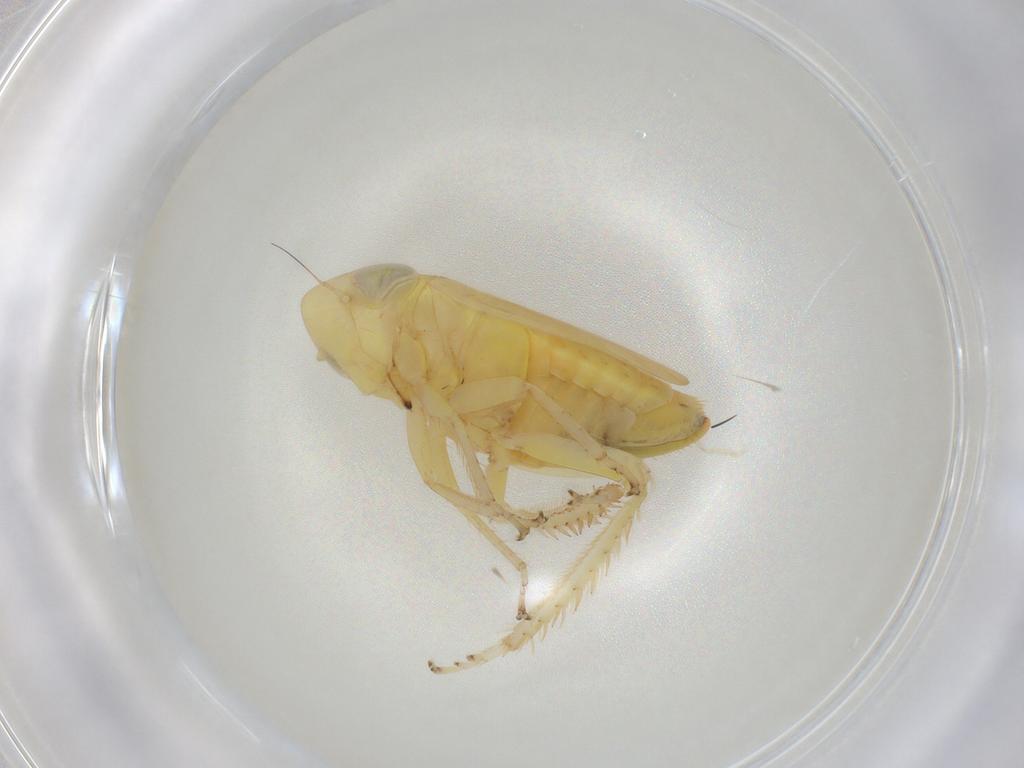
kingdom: Animalia
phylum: Arthropoda
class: Insecta
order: Hemiptera
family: Cicadellidae
